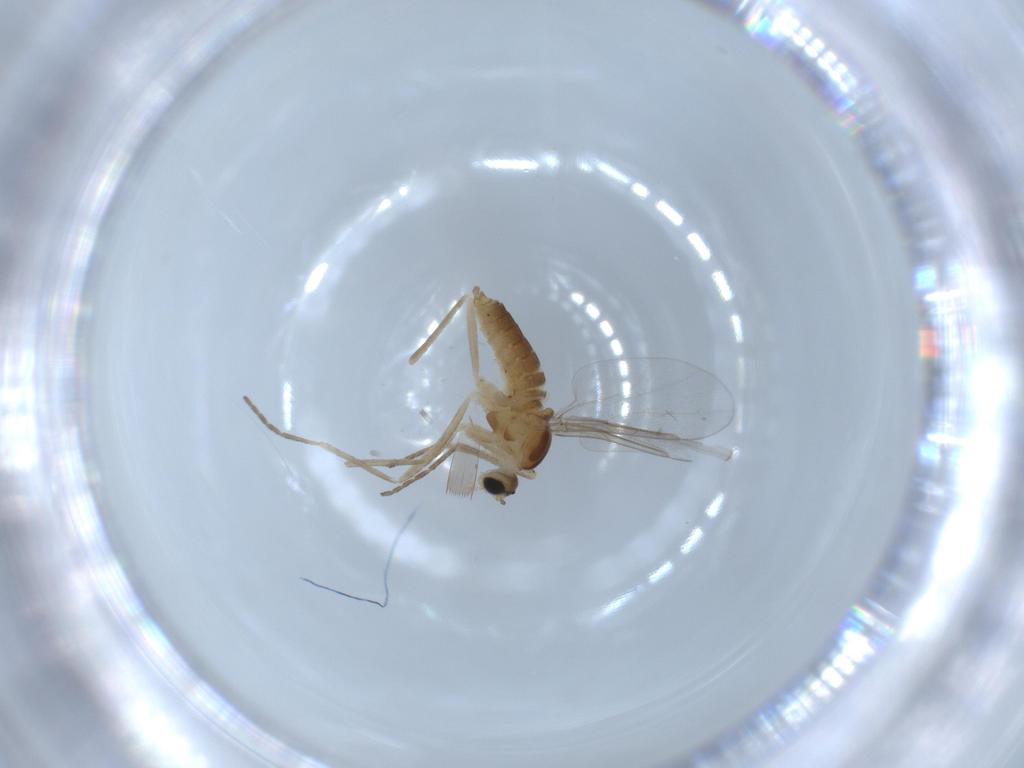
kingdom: Animalia
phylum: Arthropoda
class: Insecta
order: Diptera
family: Cecidomyiidae
